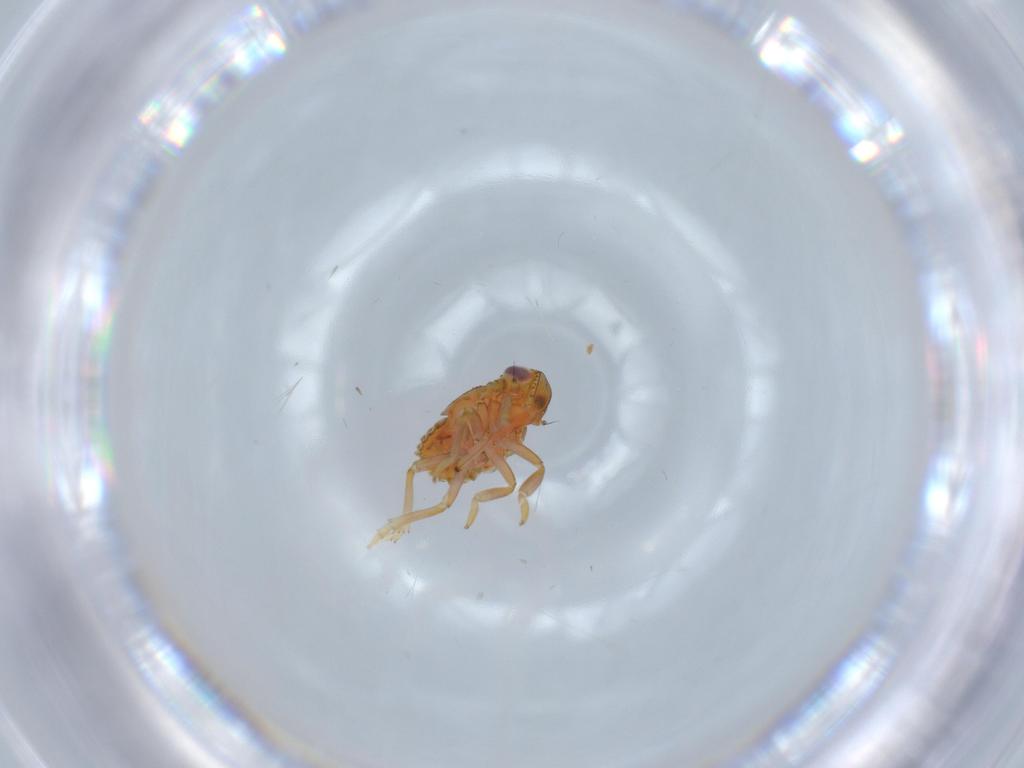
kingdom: Animalia
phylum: Arthropoda
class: Insecta
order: Hemiptera
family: Issidae
